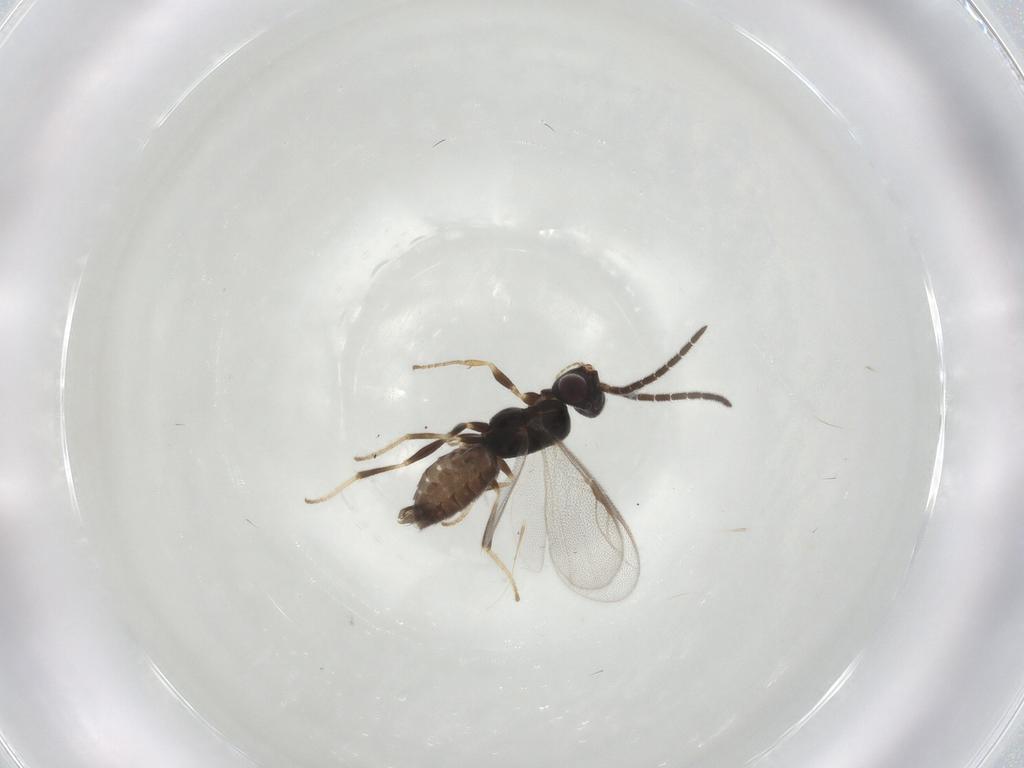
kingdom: Animalia
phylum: Arthropoda
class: Insecta
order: Hymenoptera
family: Dryinidae
